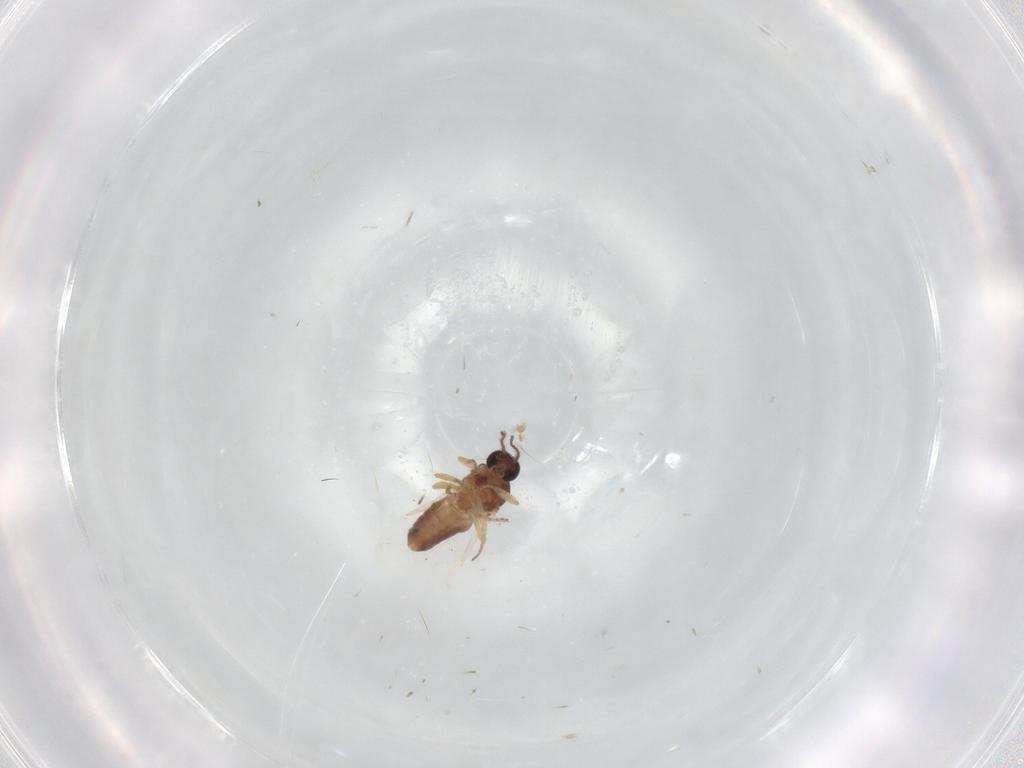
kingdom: Animalia
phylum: Arthropoda
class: Insecta
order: Diptera
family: Ceratopogonidae
